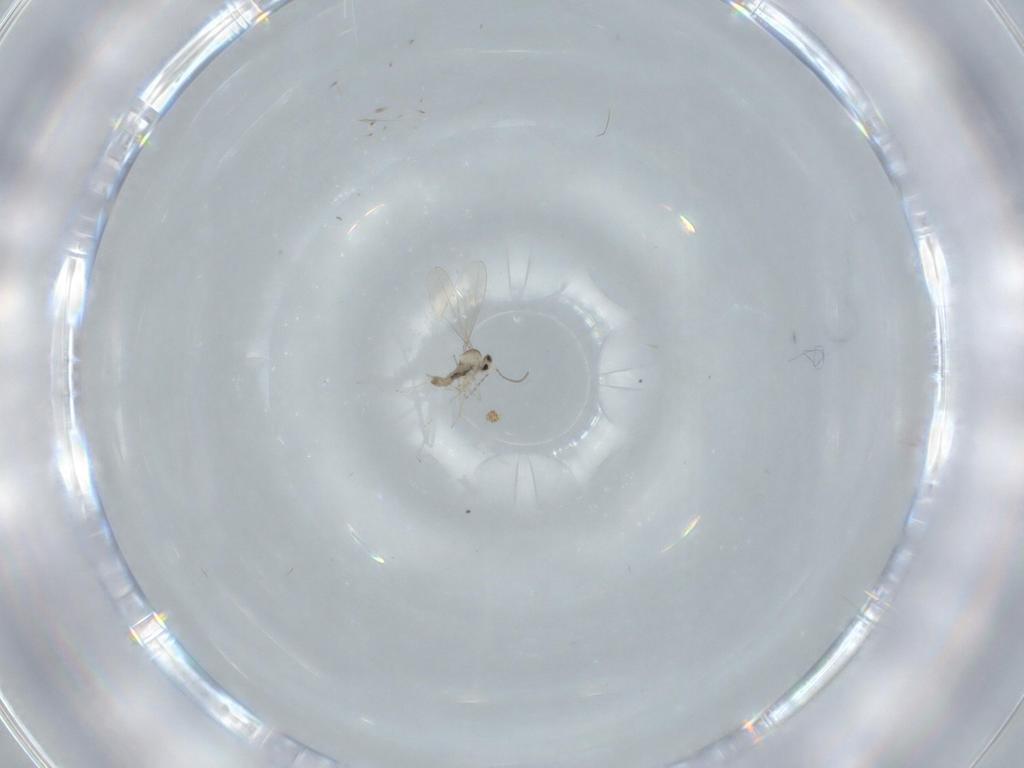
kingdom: Animalia
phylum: Arthropoda
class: Insecta
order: Diptera
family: Cecidomyiidae
